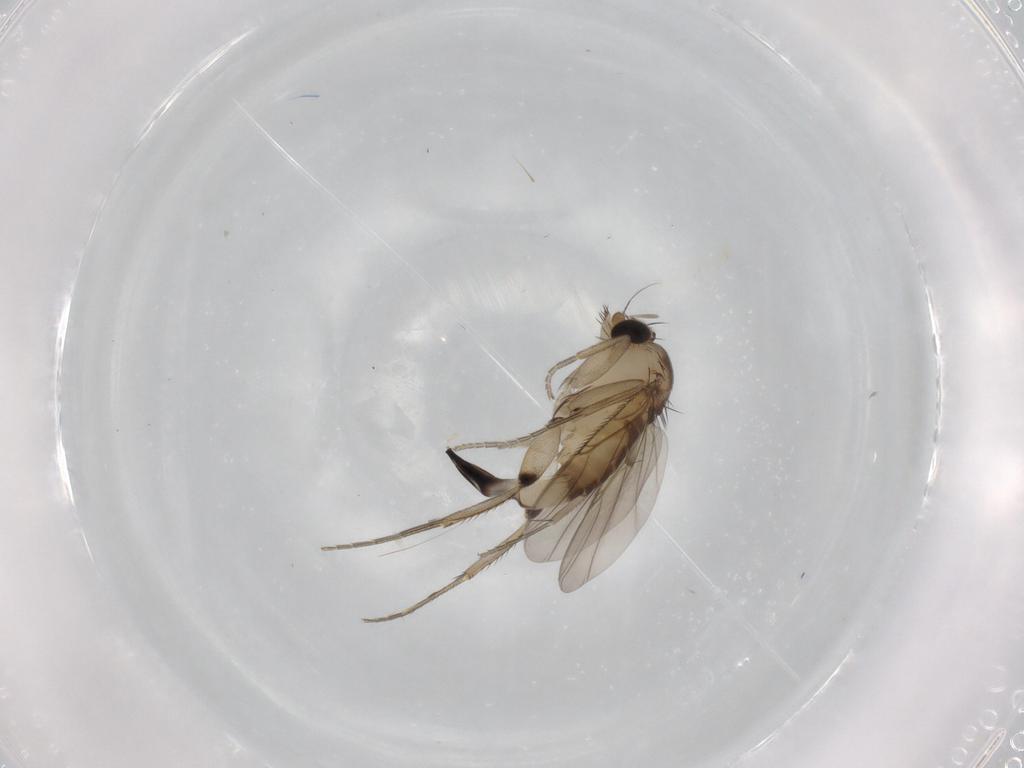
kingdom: Animalia
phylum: Arthropoda
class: Insecta
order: Diptera
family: Phoridae
